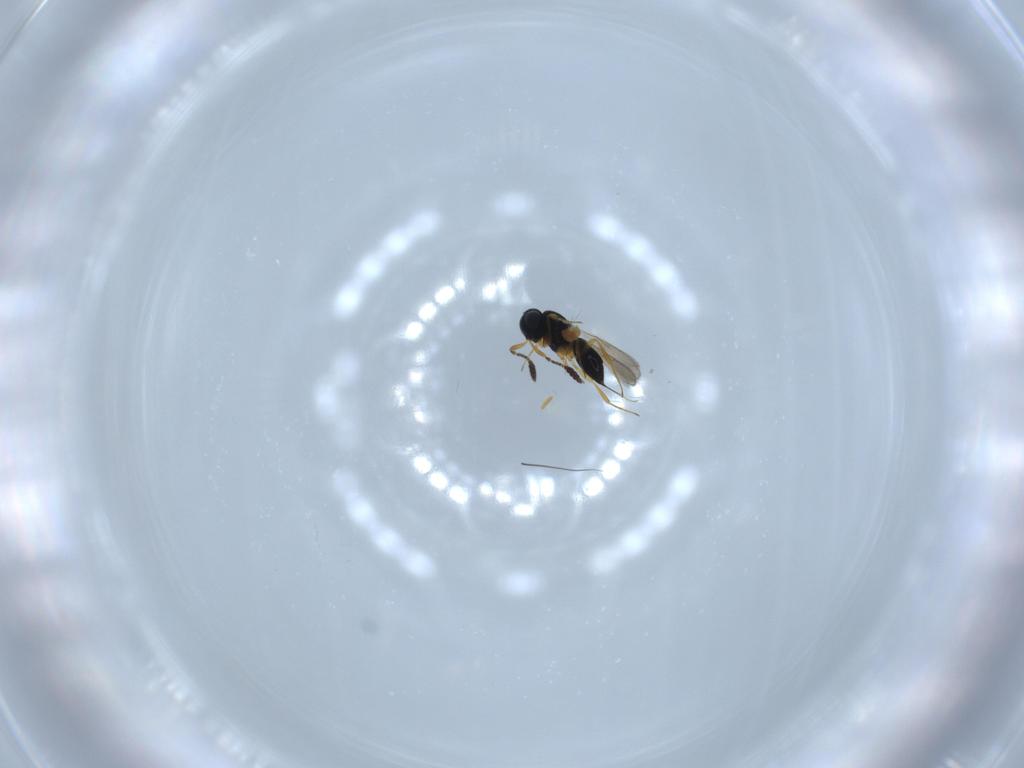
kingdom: Animalia
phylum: Arthropoda
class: Insecta
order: Hymenoptera
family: Scelionidae
